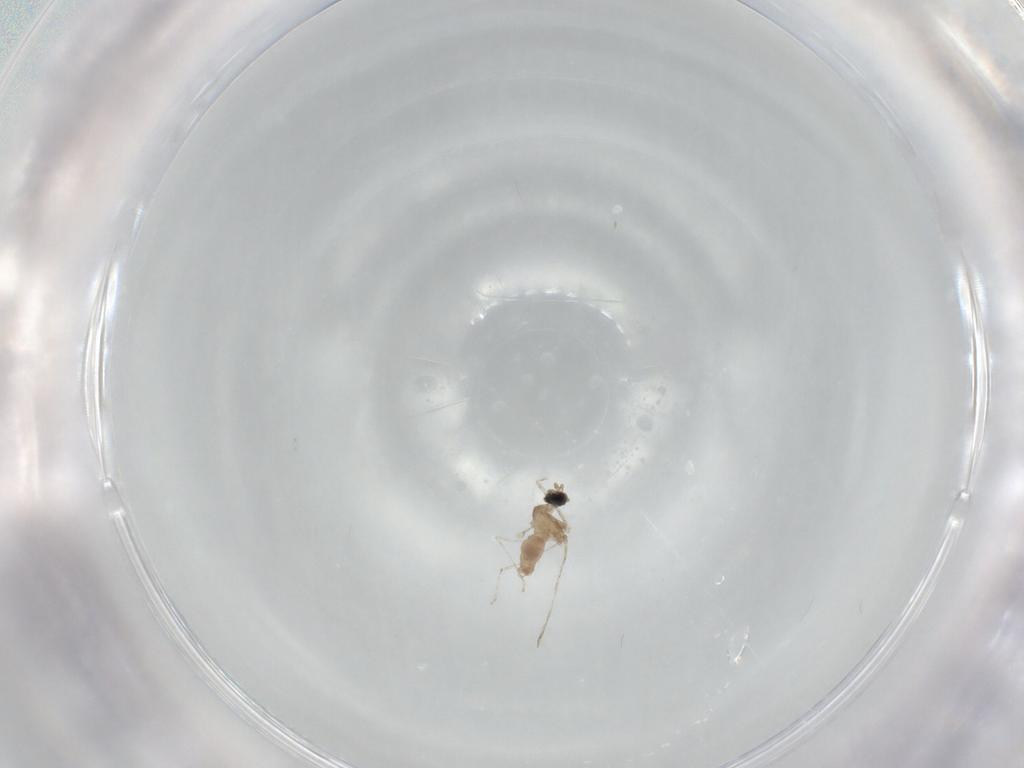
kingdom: Animalia
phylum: Arthropoda
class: Insecta
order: Diptera
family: Cecidomyiidae
